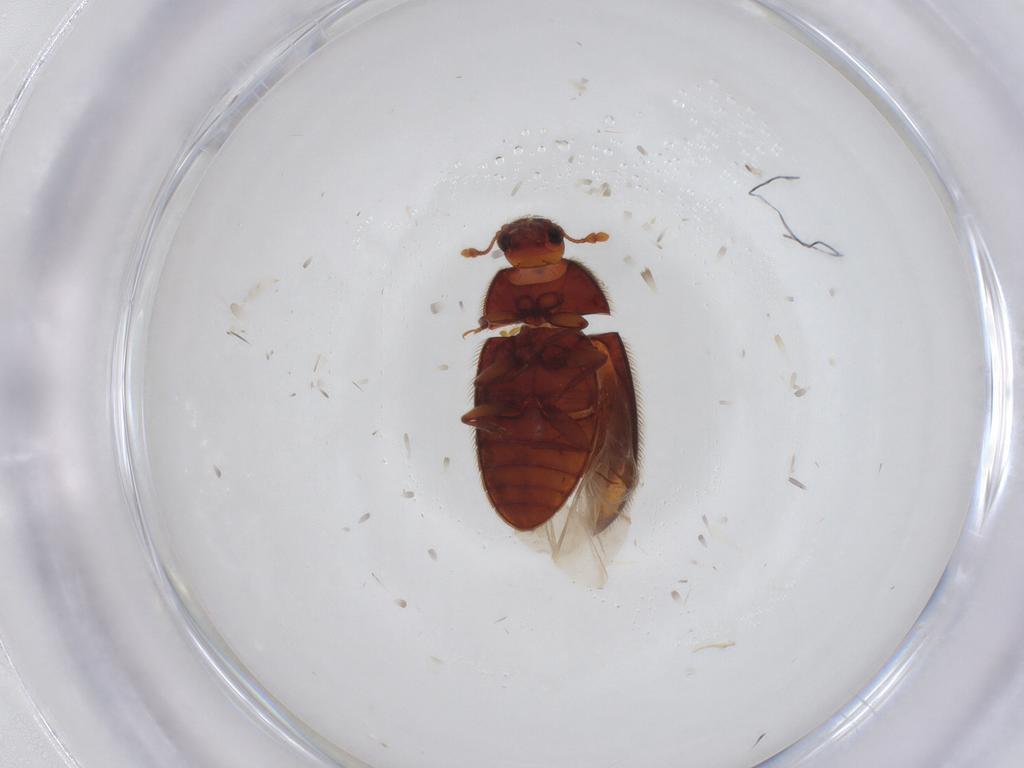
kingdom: Animalia
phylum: Arthropoda
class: Insecta
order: Coleoptera
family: Biphyllidae
